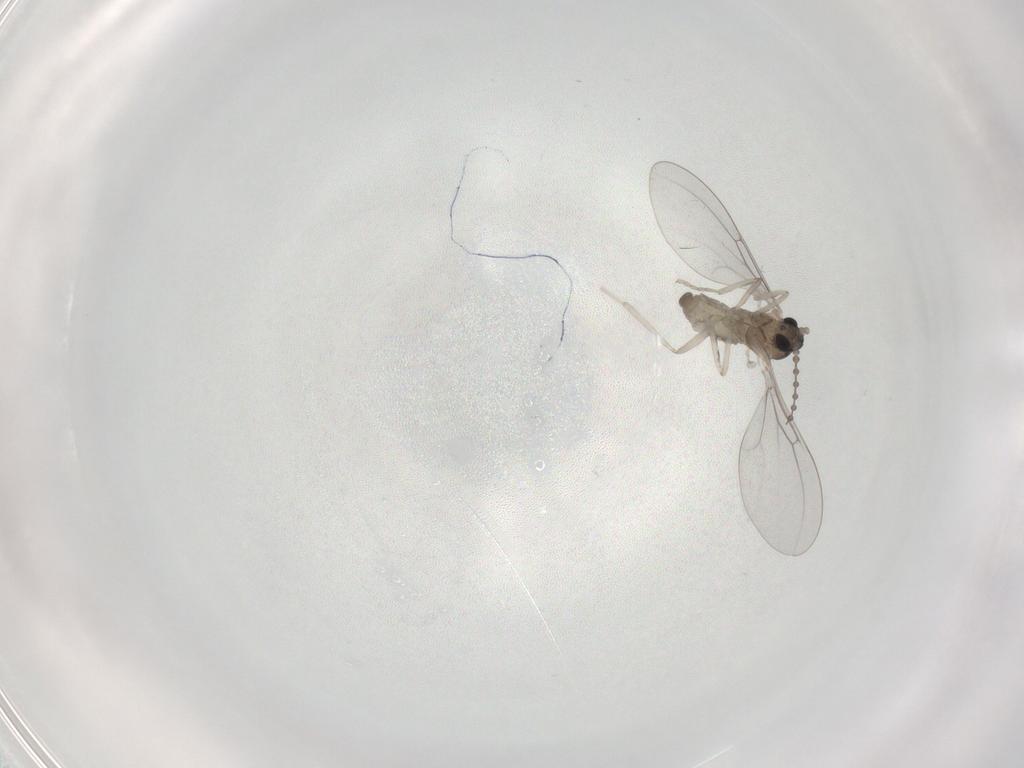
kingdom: Animalia
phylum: Arthropoda
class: Insecta
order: Diptera
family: Cecidomyiidae
